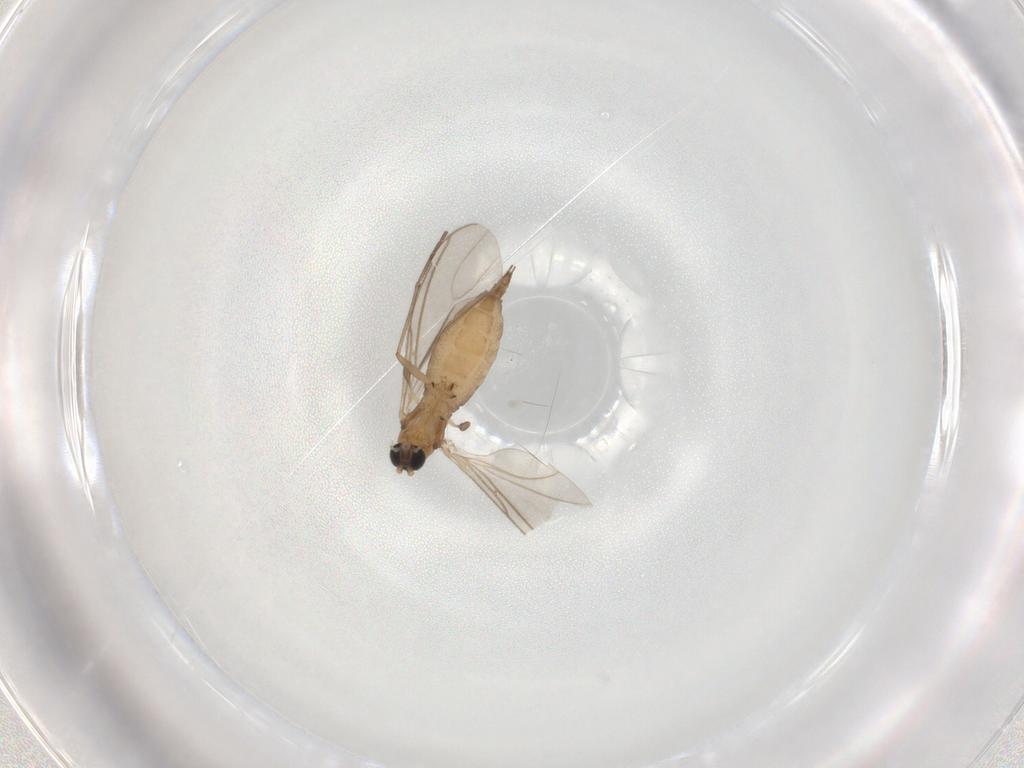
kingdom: Animalia
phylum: Arthropoda
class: Insecta
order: Diptera
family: Sciaridae
